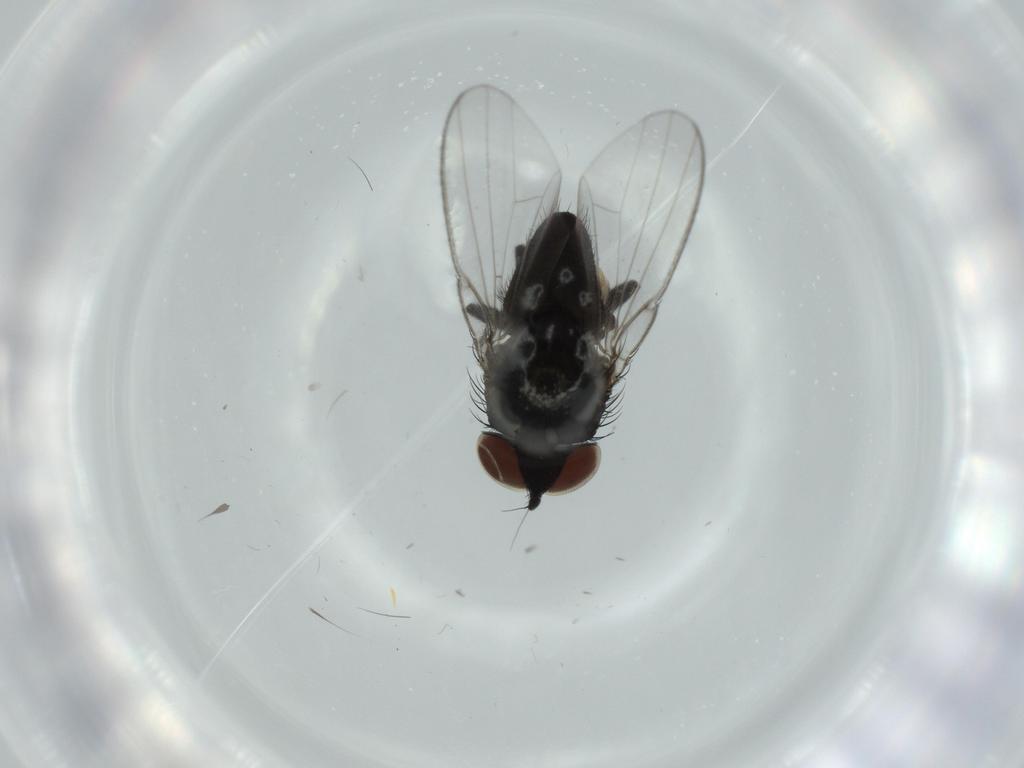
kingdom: Animalia
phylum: Arthropoda
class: Insecta
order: Diptera
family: Milichiidae
